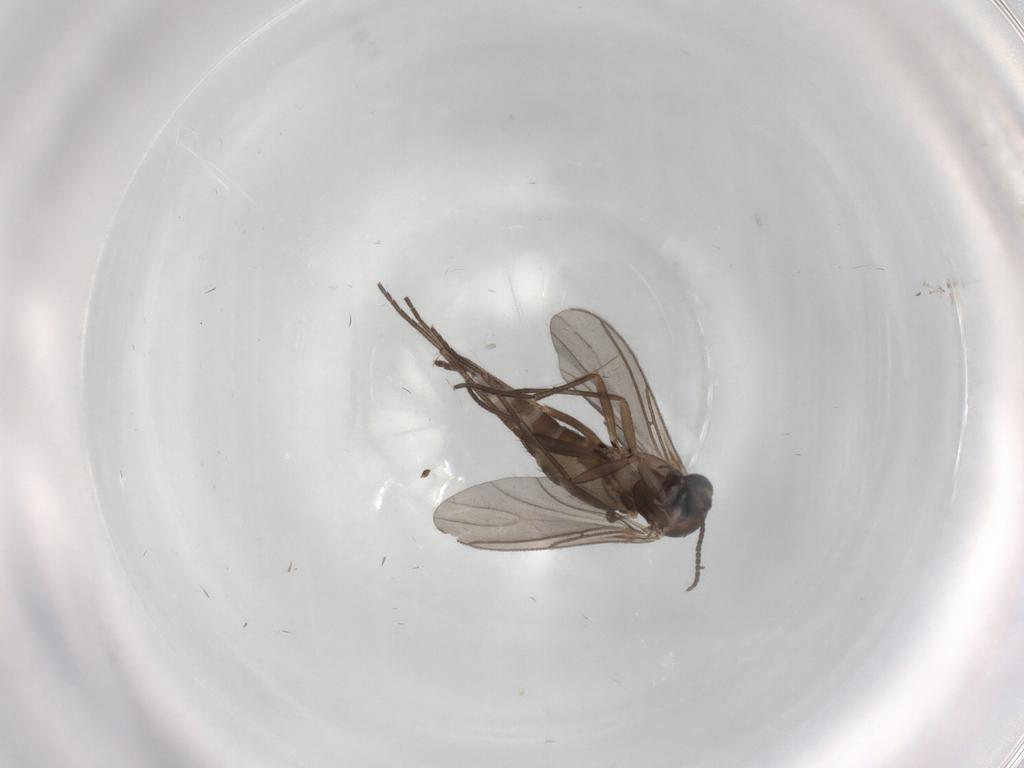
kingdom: Animalia
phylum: Arthropoda
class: Insecta
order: Diptera
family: Sciaridae
